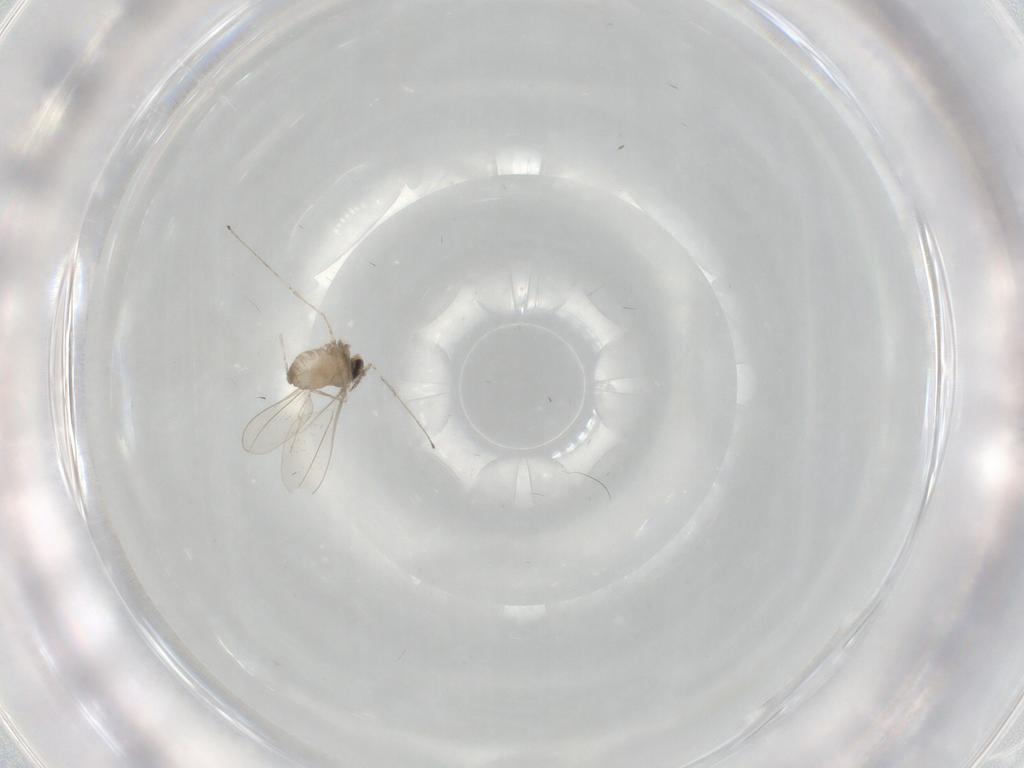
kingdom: Animalia
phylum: Arthropoda
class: Insecta
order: Diptera
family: Cecidomyiidae
